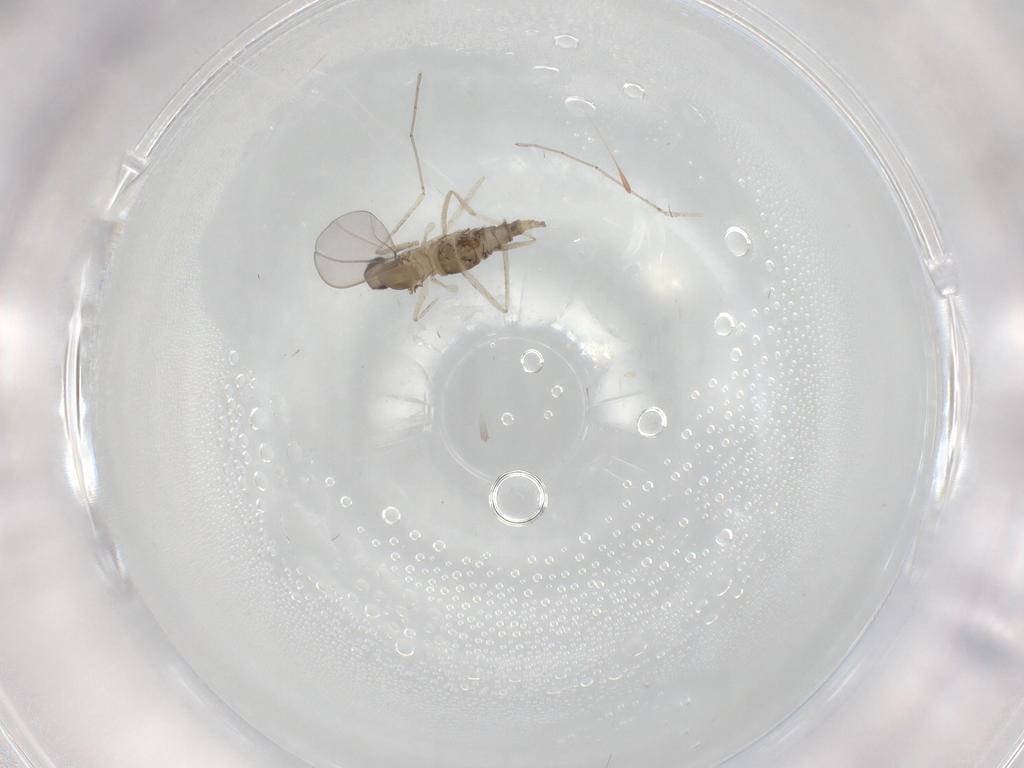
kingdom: Animalia
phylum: Arthropoda
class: Insecta
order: Diptera
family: Cecidomyiidae
